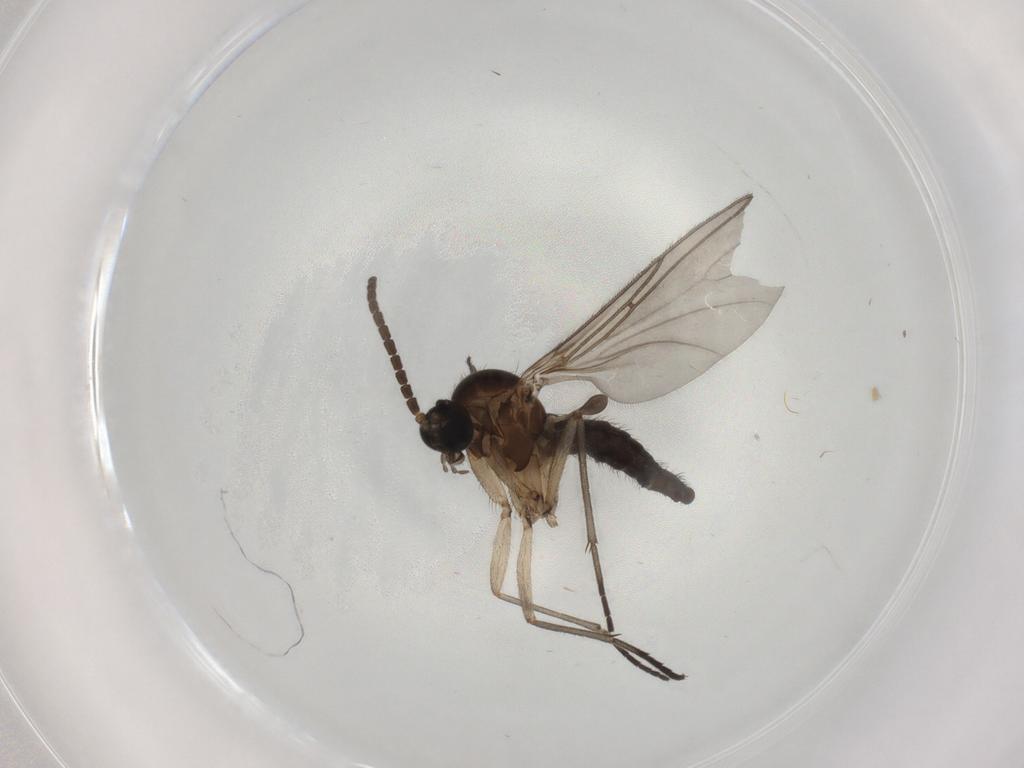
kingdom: Animalia
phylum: Arthropoda
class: Insecta
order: Diptera
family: Sciaridae
